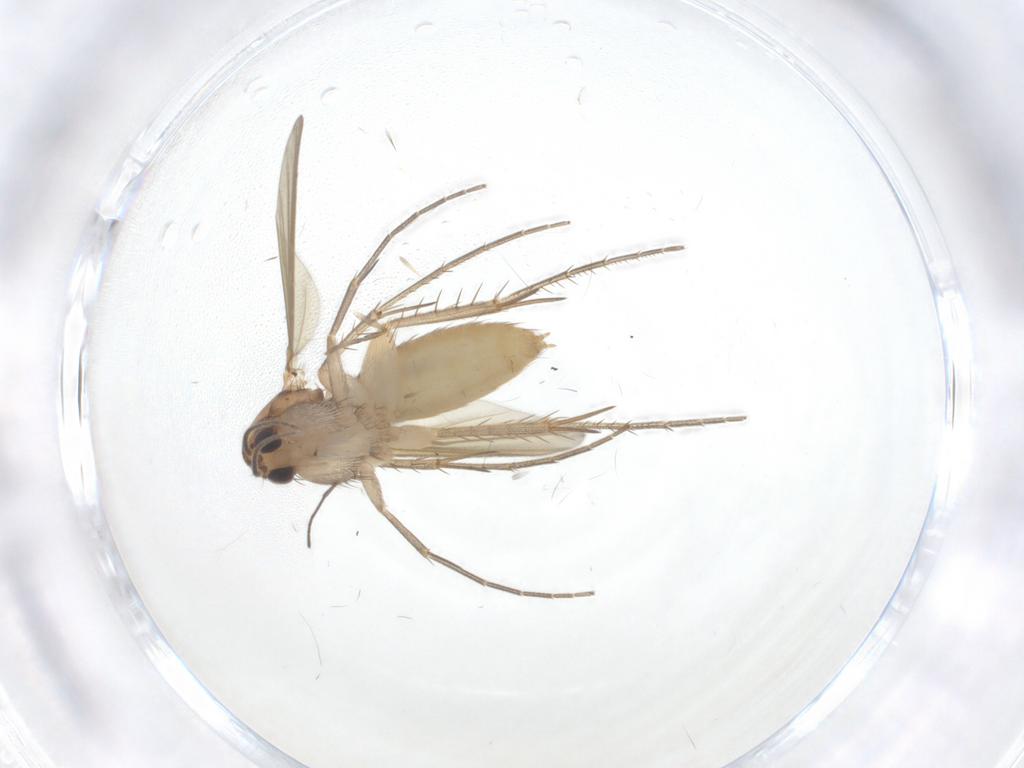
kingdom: Animalia
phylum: Arthropoda
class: Insecta
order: Diptera
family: Mycetophilidae
